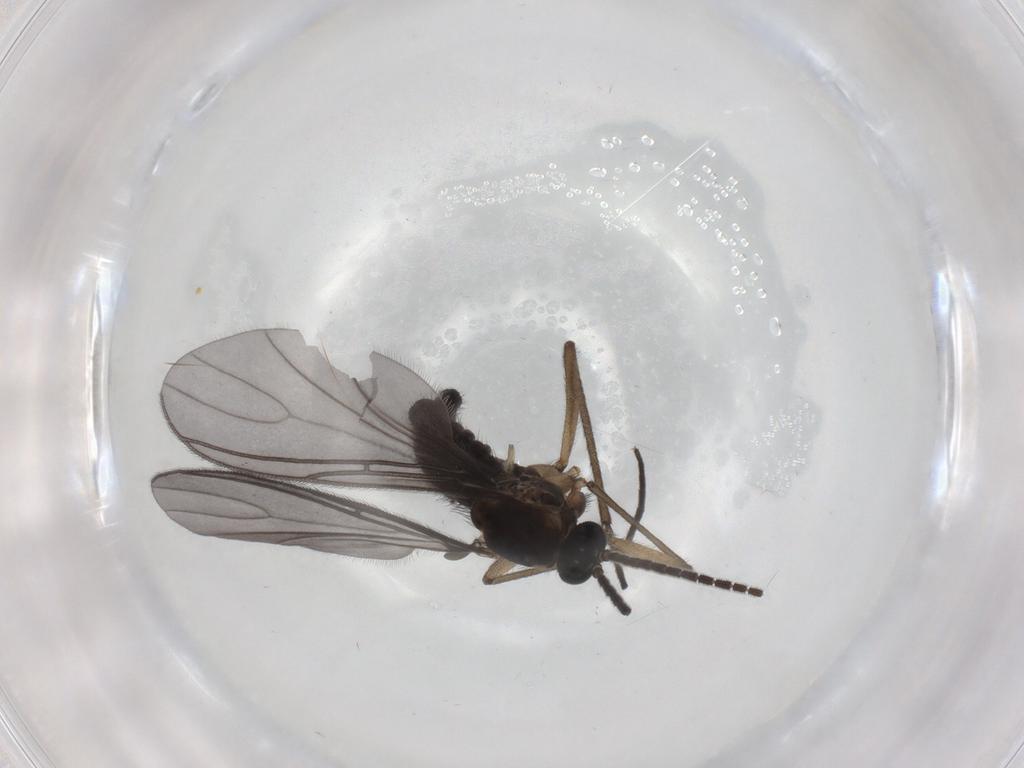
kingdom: Animalia
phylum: Arthropoda
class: Insecta
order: Diptera
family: Sciaridae
